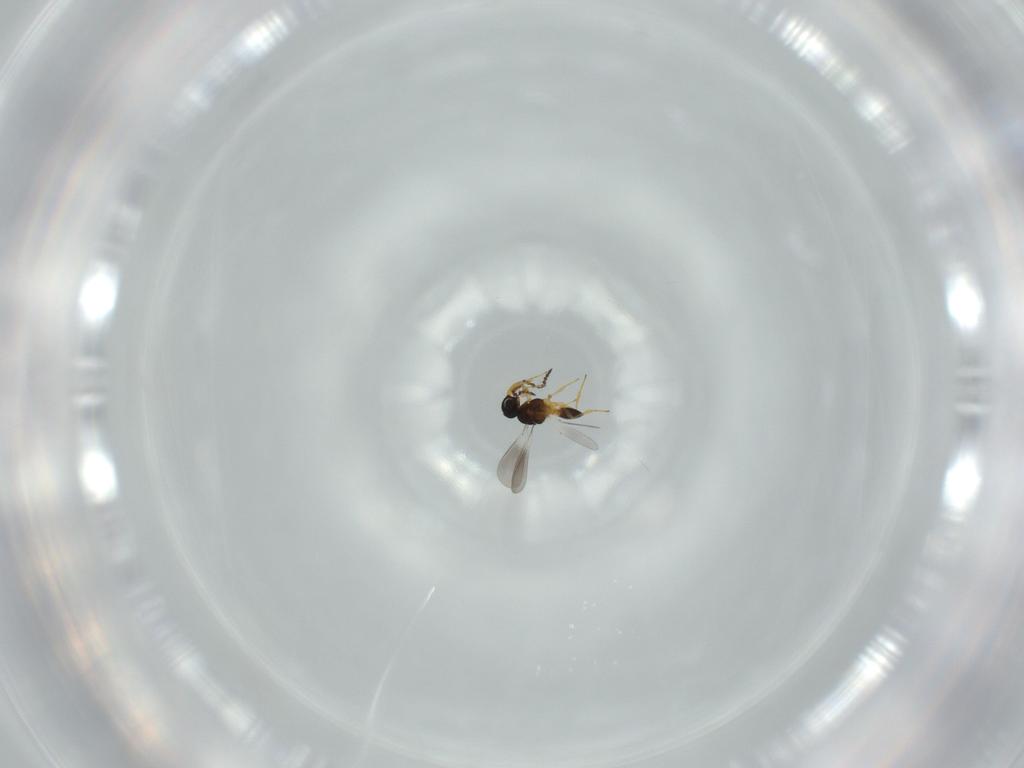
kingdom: Animalia
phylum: Arthropoda
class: Insecta
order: Hymenoptera
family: Platygastridae
